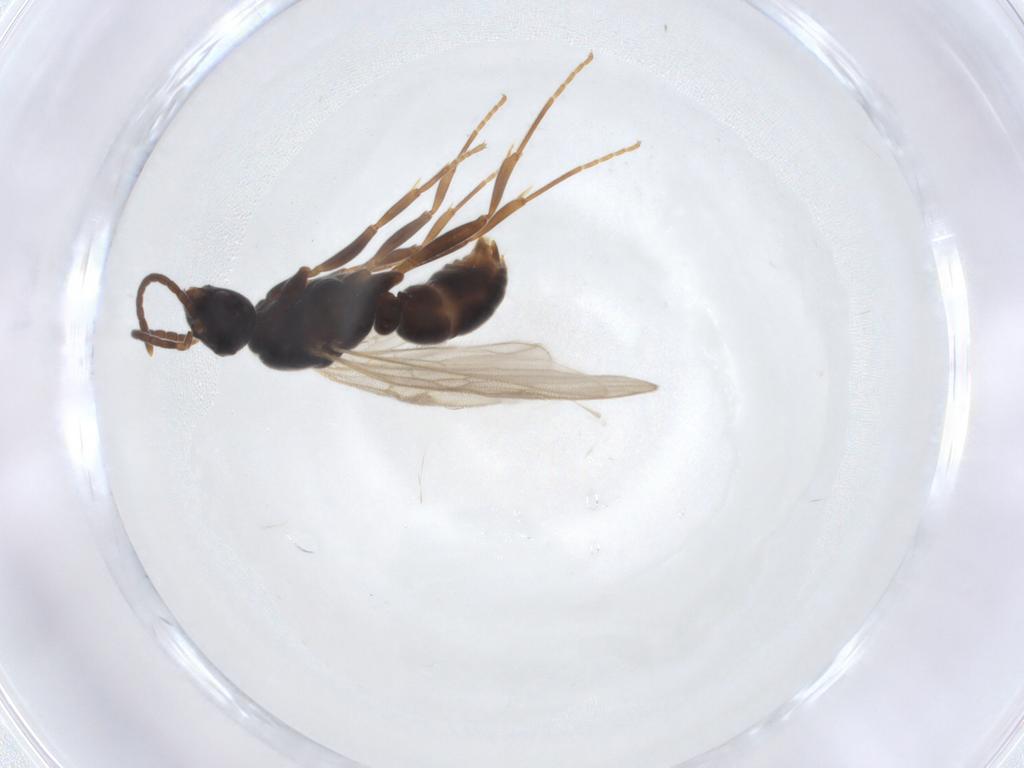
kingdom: Animalia
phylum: Arthropoda
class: Insecta
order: Hymenoptera
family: Formicidae
